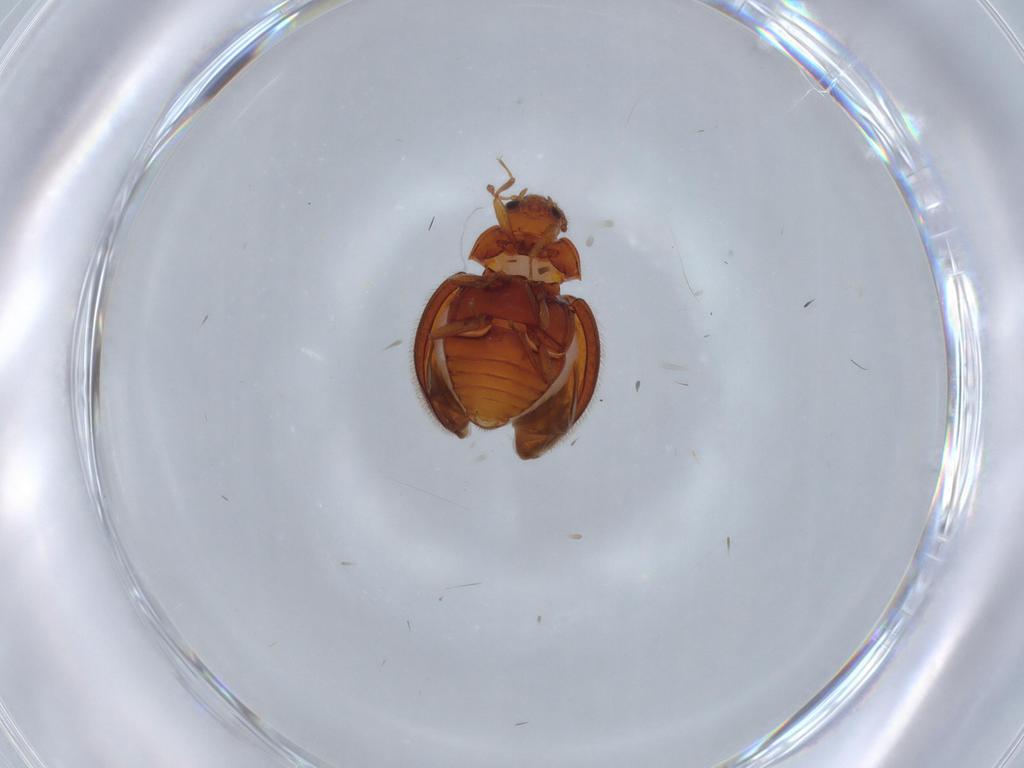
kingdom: Animalia
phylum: Arthropoda
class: Insecta
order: Coleoptera
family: Anamorphidae
